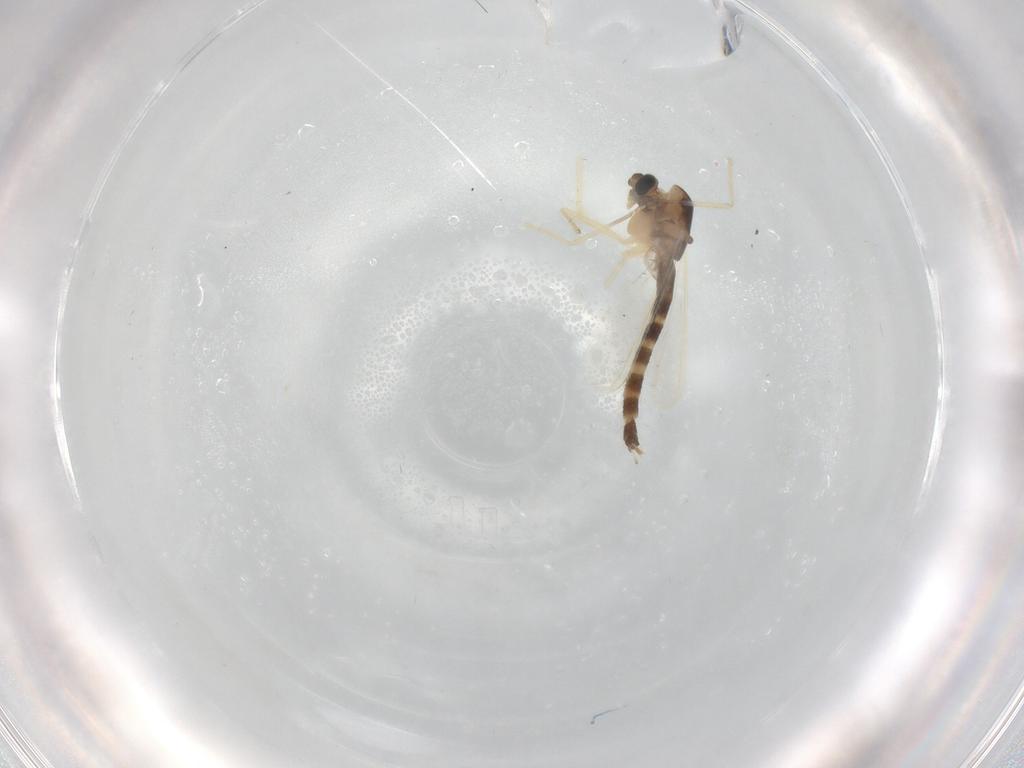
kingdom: Animalia
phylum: Arthropoda
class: Insecta
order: Diptera
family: Chironomidae
